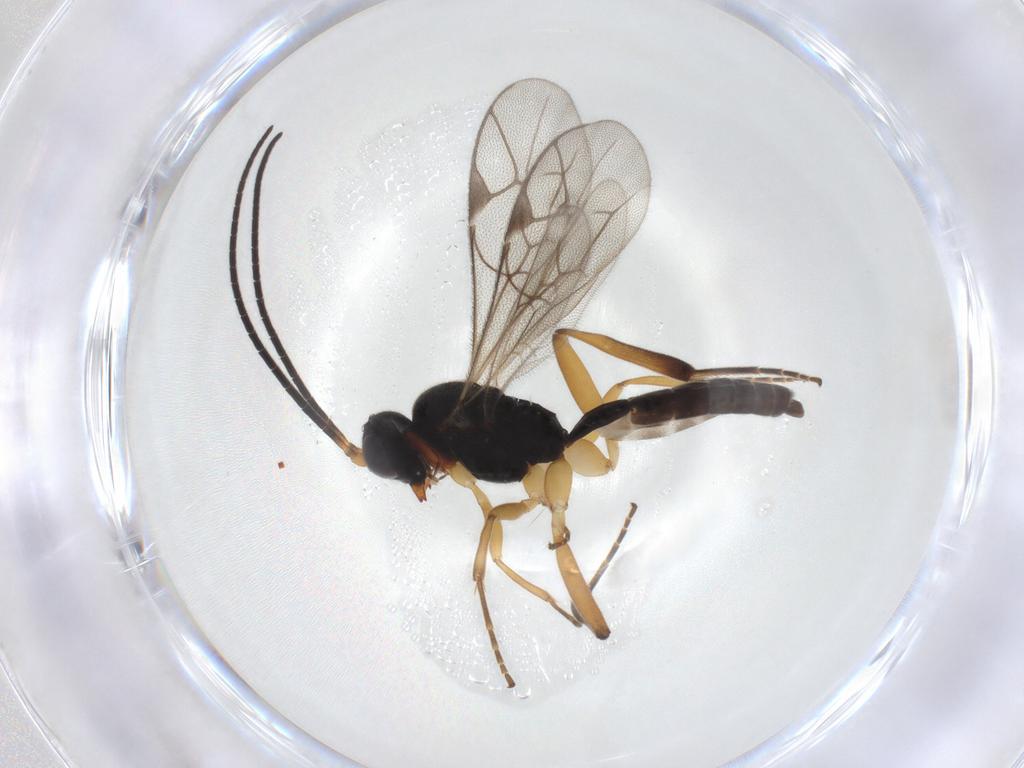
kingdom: Animalia
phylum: Arthropoda
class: Insecta
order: Hymenoptera
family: Ichneumonidae
